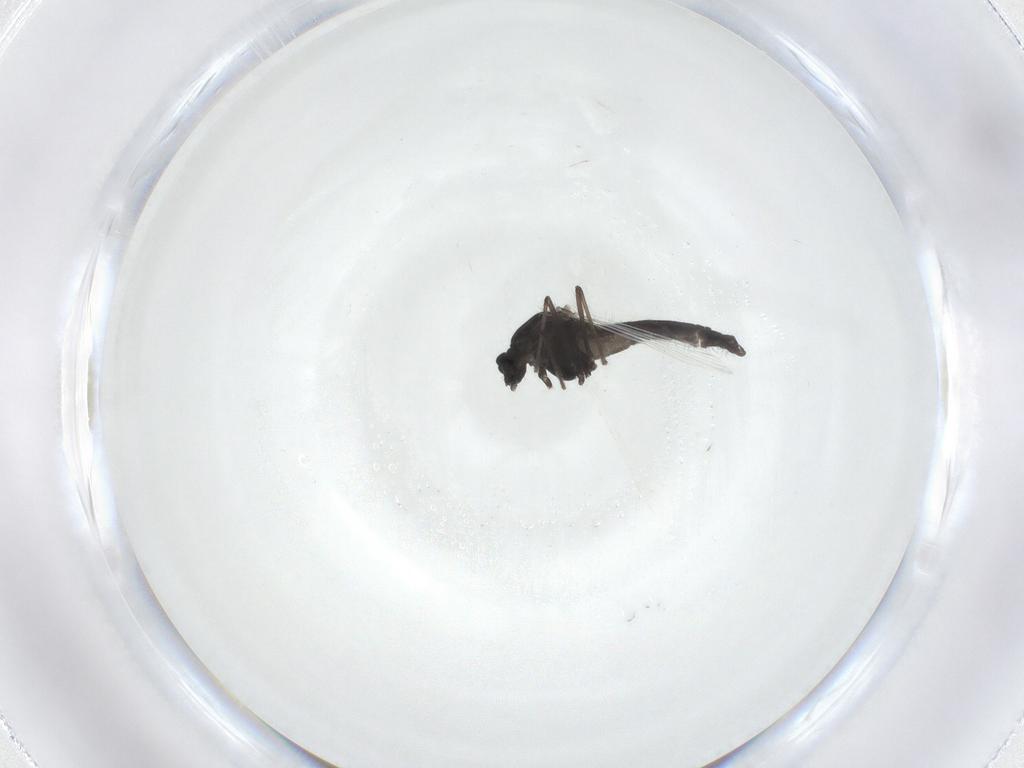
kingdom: Animalia
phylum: Arthropoda
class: Insecta
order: Diptera
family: Chironomidae
